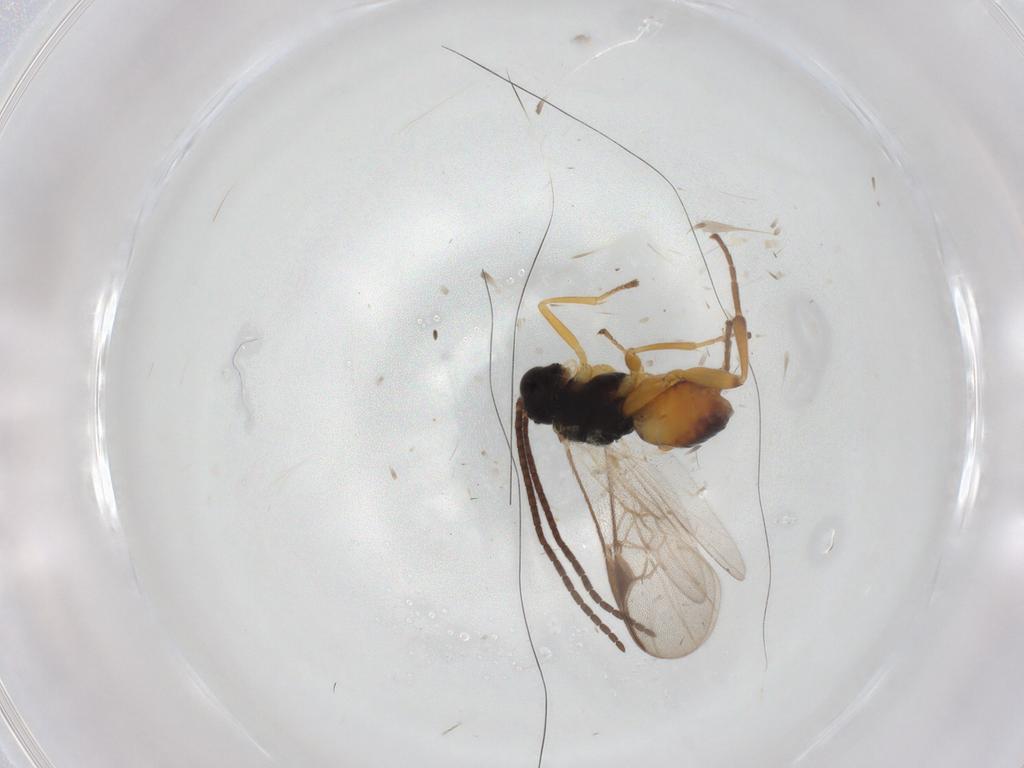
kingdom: Animalia
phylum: Arthropoda
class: Insecta
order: Hymenoptera
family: Braconidae
